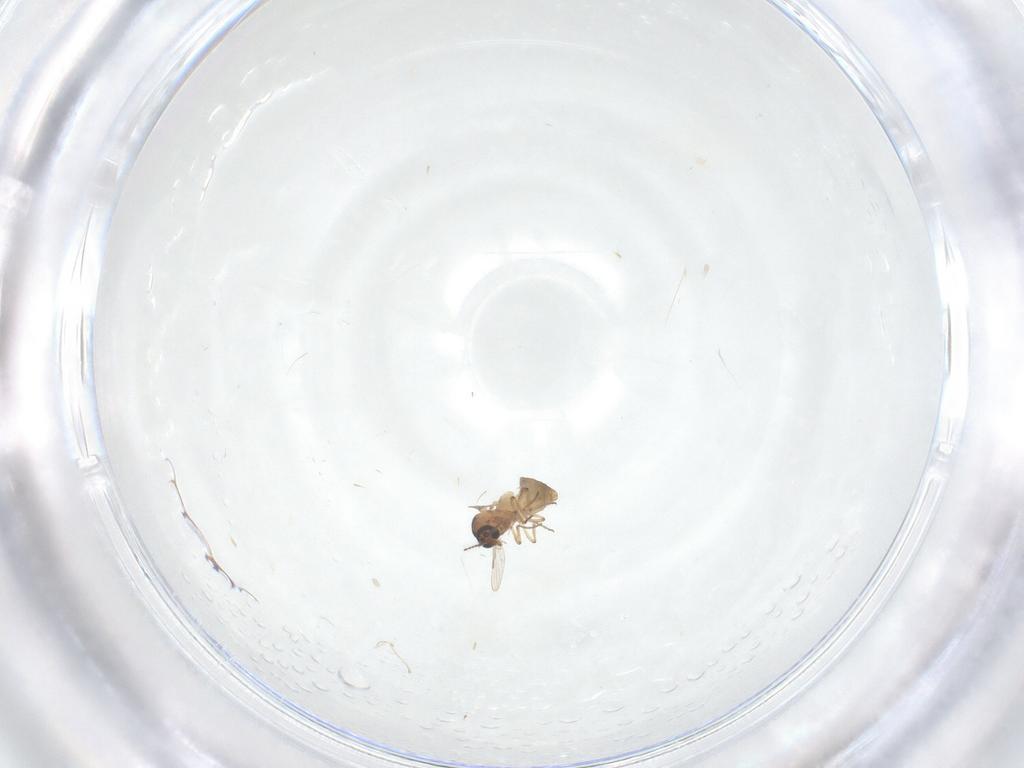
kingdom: Animalia
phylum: Arthropoda
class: Insecta
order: Diptera
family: Ceratopogonidae
